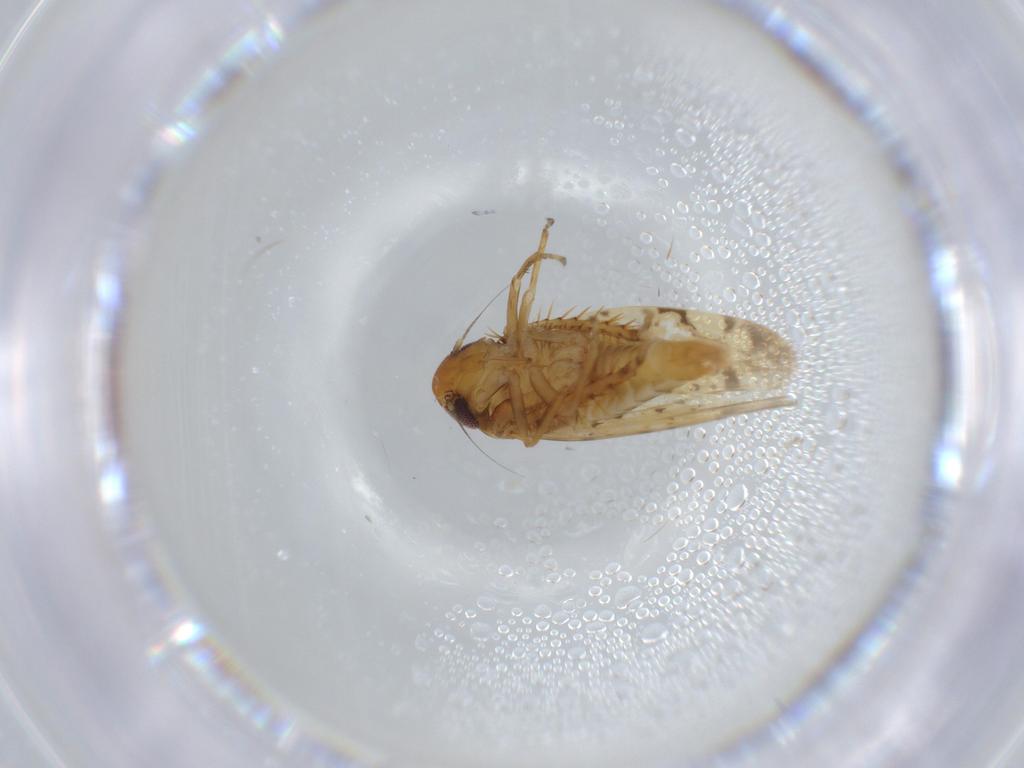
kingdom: Animalia
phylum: Arthropoda
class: Insecta
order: Hemiptera
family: Cicadellidae
